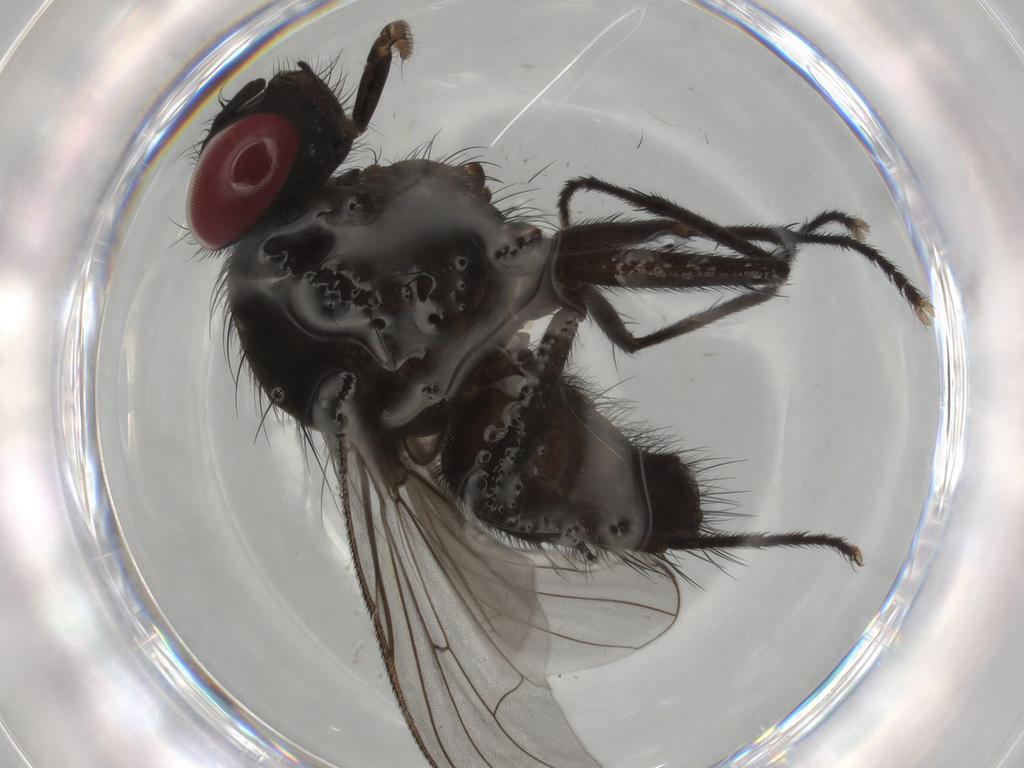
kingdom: Animalia
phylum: Arthropoda
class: Insecta
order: Diptera
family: Muscidae
